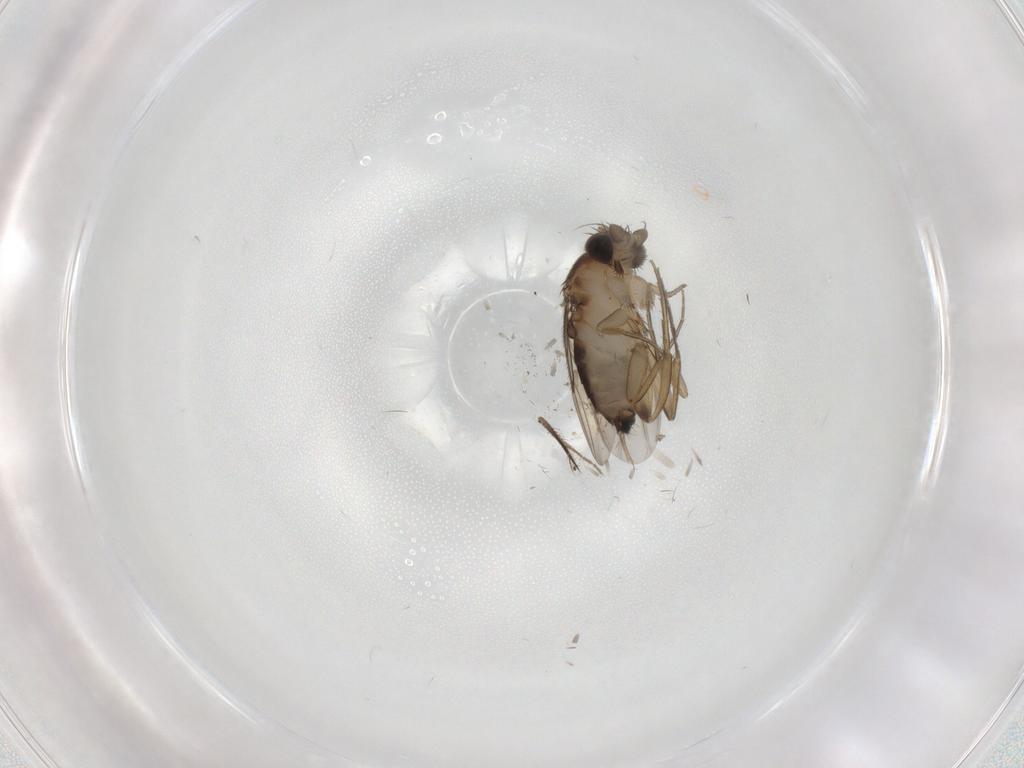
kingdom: Animalia
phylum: Arthropoda
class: Insecta
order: Diptera
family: Ceratopogonidae
